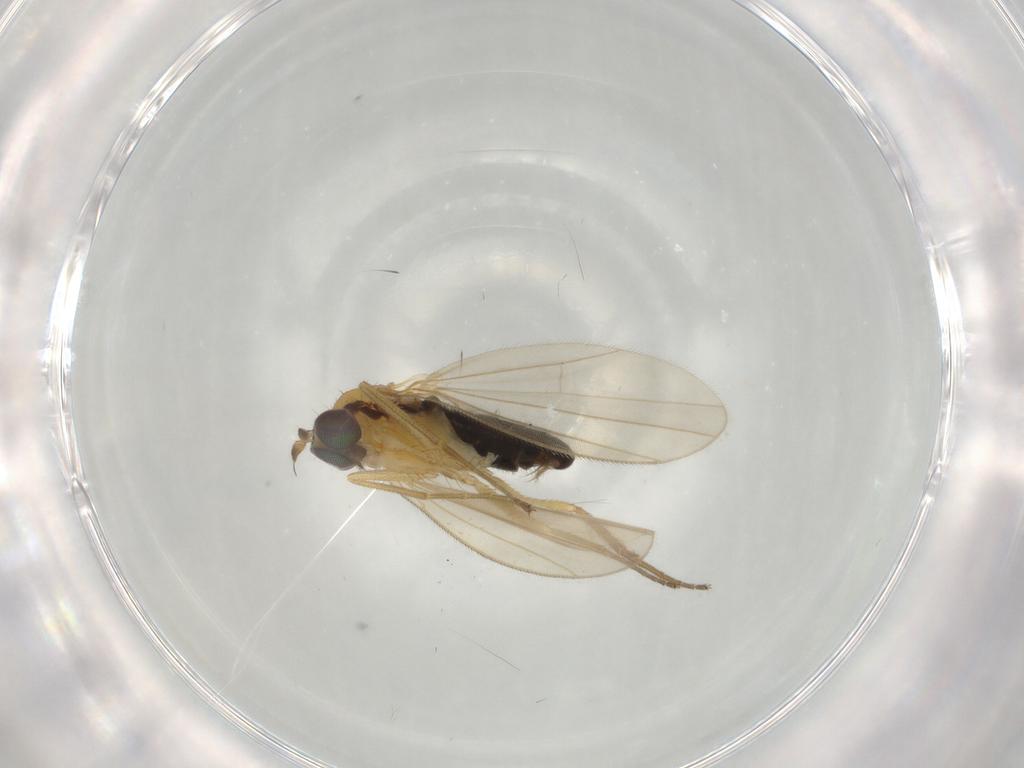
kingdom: Animalia
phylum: Arthropoda
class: Insecta
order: Diptera
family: Dolichopodidae
